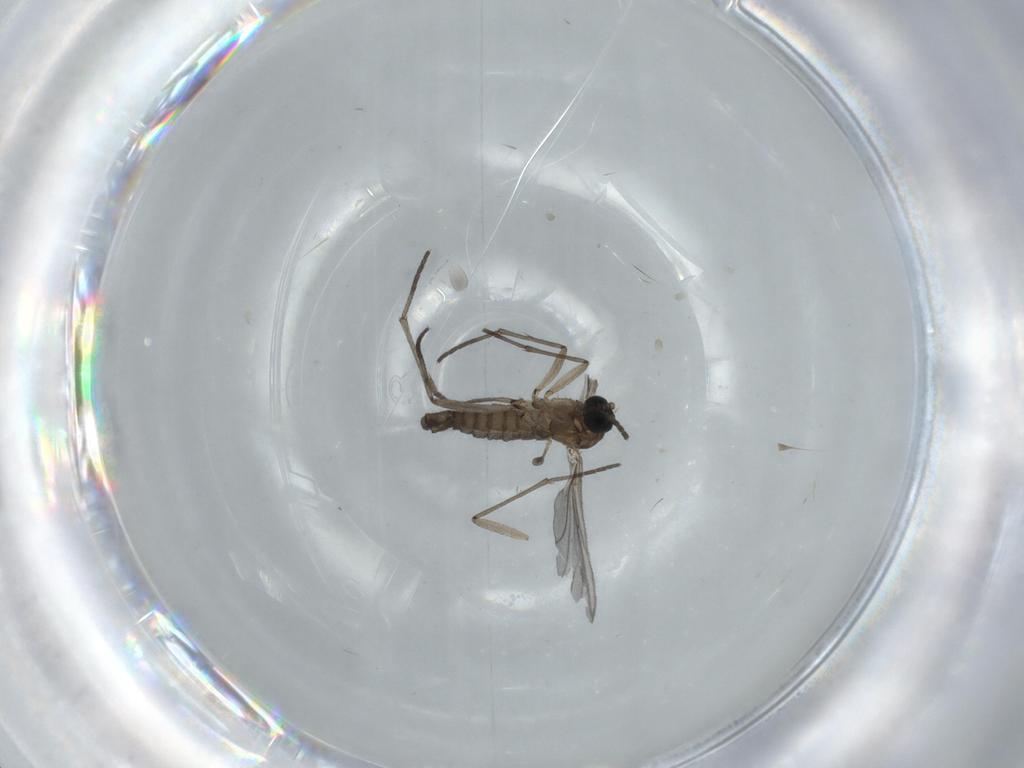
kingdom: Animalia
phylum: Arthropoda
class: Insecta
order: Diptera
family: Sciaridae
